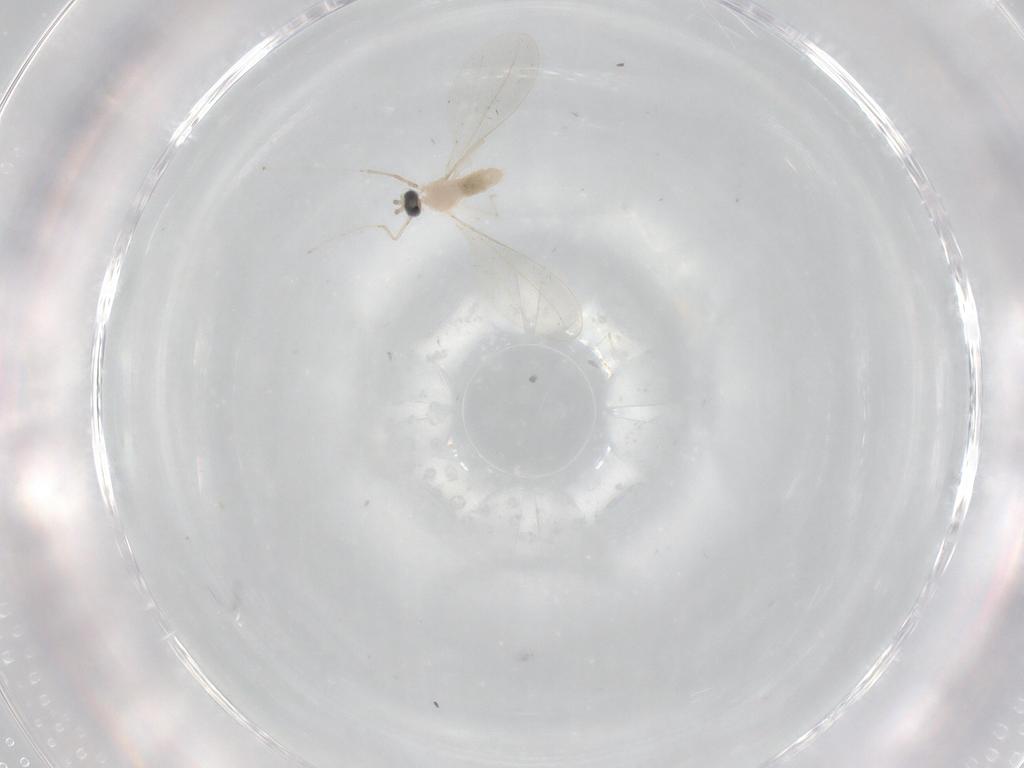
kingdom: Animalia
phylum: Arthropoda
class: Insecta
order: Diptera
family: Cecidomyiidae
